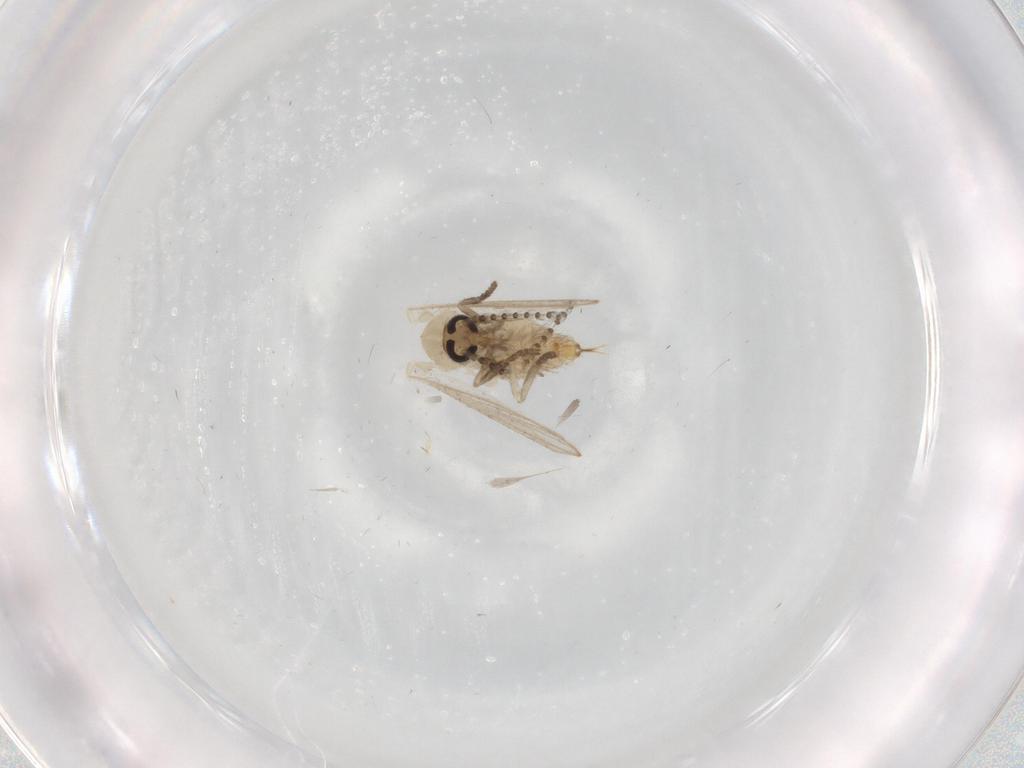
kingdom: Animalia
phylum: Arthropoda
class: Insecta
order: Diptera
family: Psychodidae
